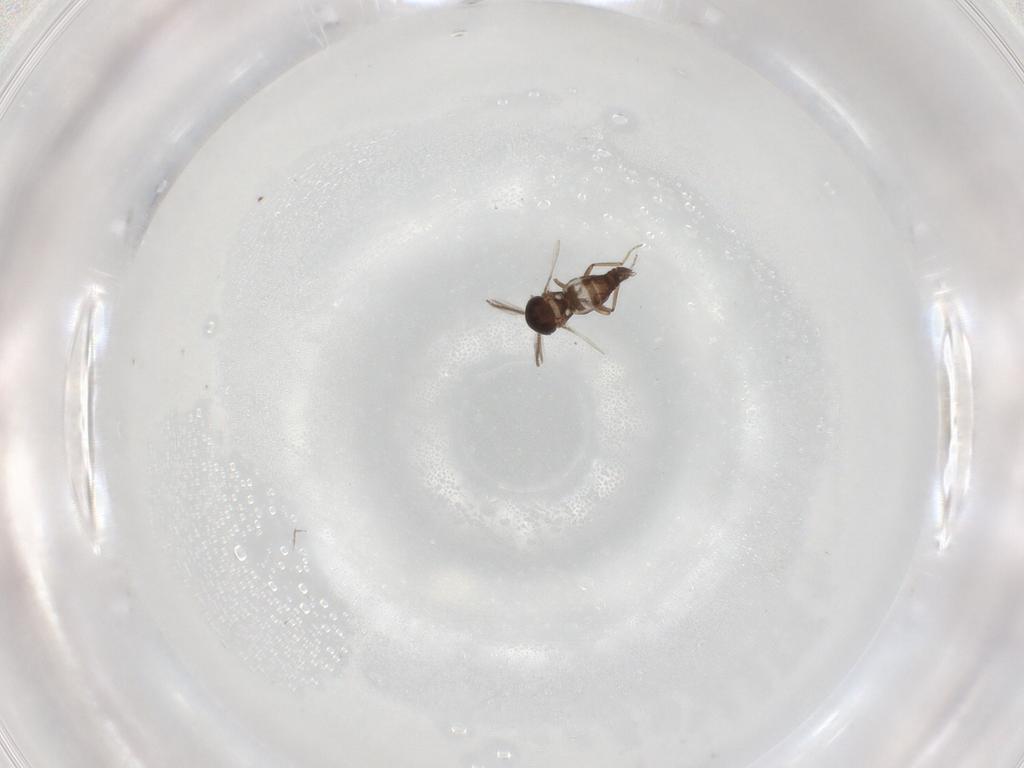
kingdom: Animalia
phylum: Arthropoda
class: Insecta
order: Diptera
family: Ceratopogonidae
